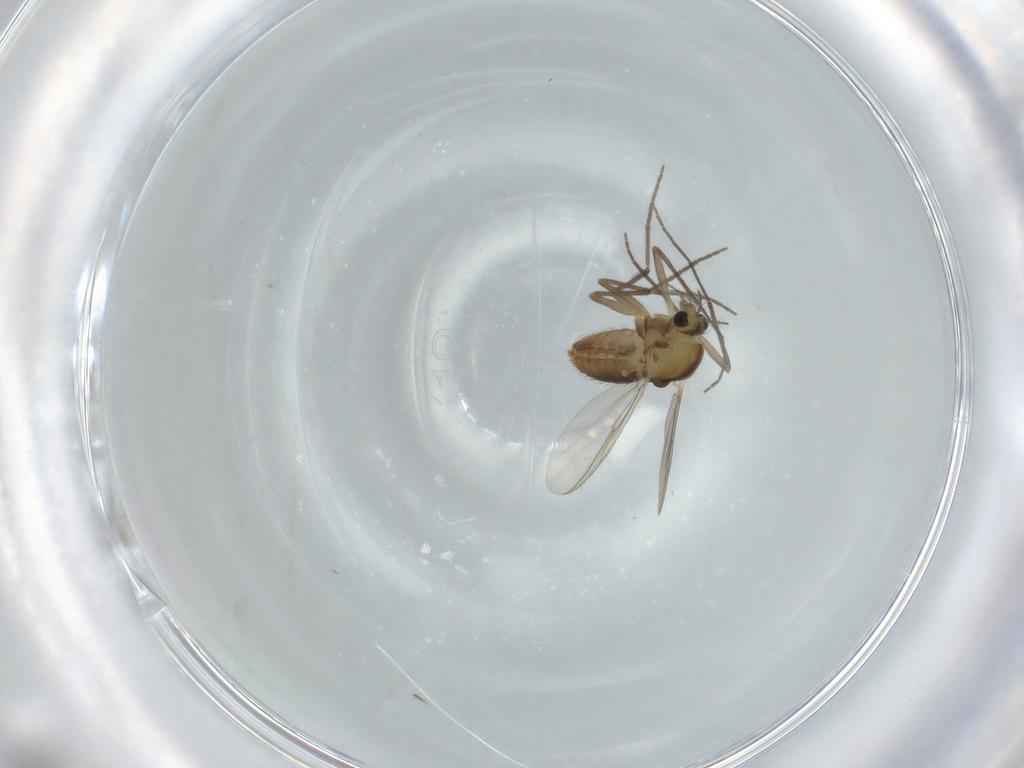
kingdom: Animalia
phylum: Arthropoda
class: Insecta
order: Diptera
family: Chironomidae
